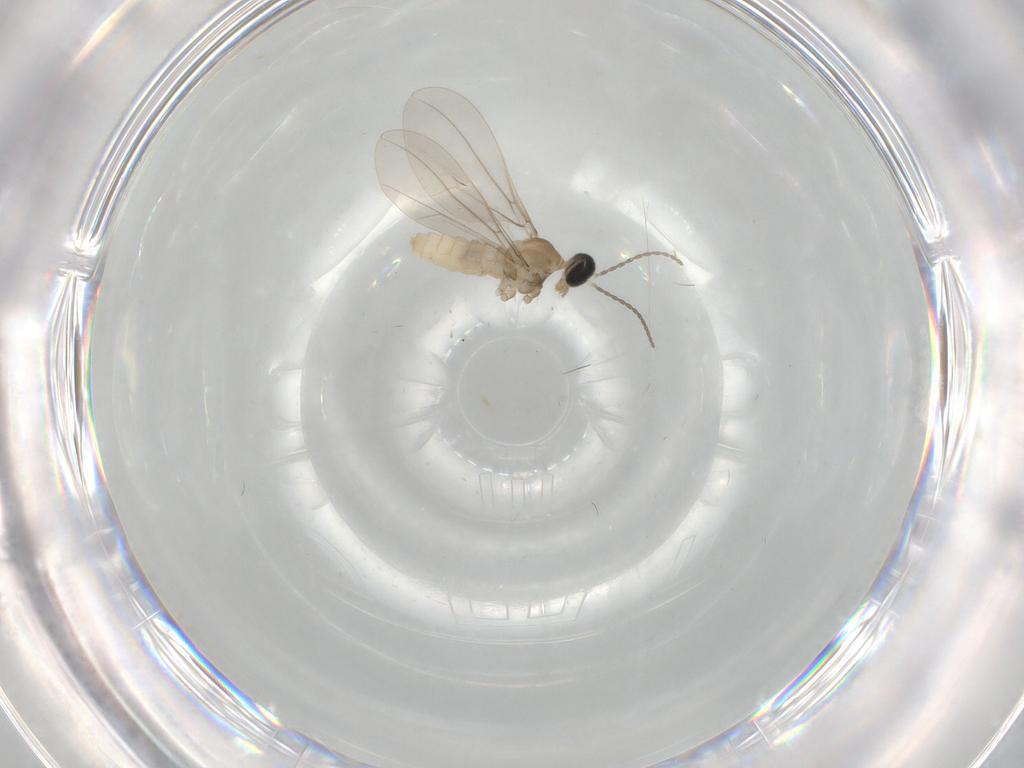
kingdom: Animalia
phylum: Arthropoda
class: Insecta
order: Diptera
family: Cecidomyiidae
